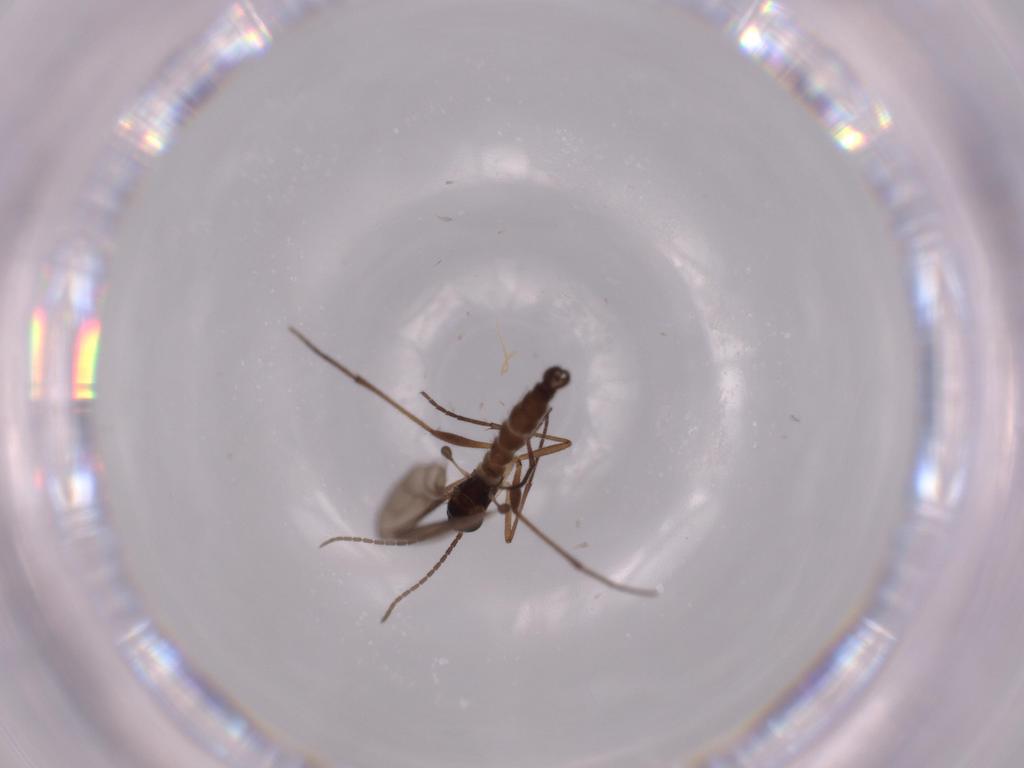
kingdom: Animalia
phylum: Arthropoda
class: Insecta
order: Diptera
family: Sciaridae
